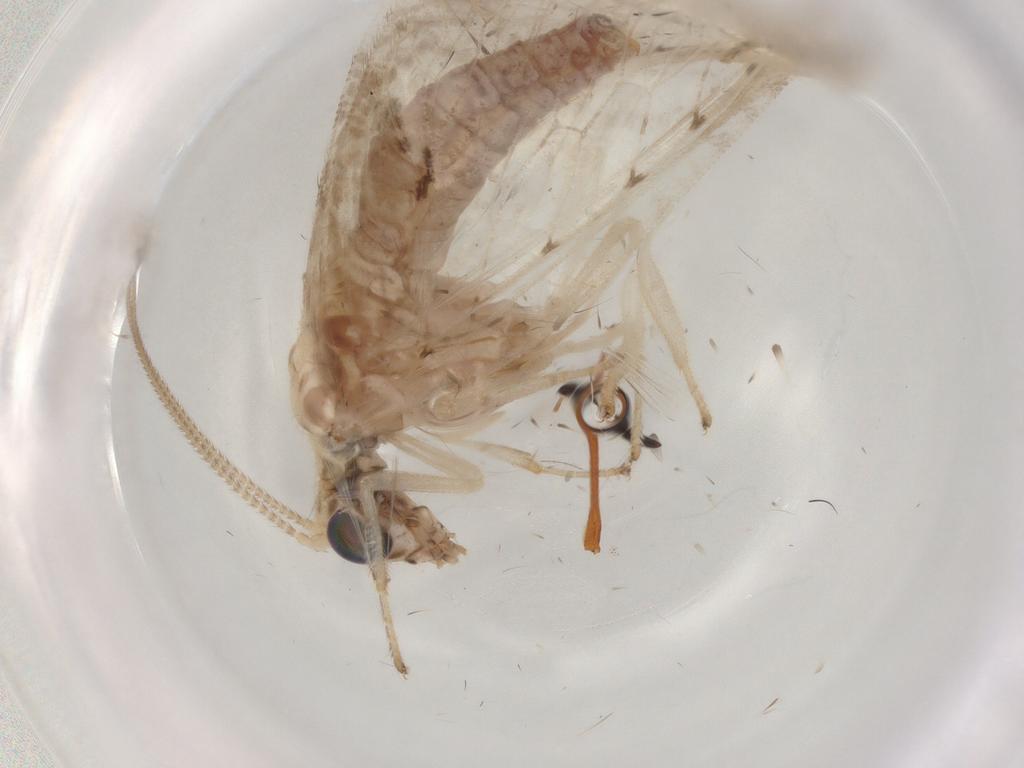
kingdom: Animalia
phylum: Arthropoda
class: Insecta
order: Neuroptera
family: Hemerobiidae
